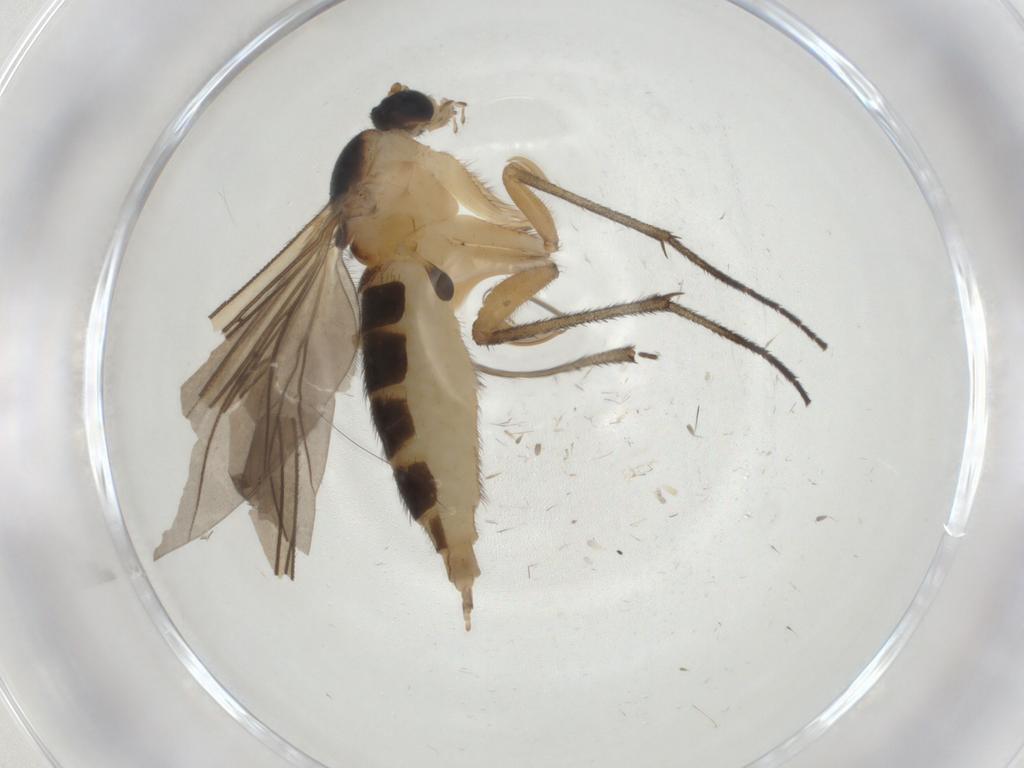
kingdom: Animalia
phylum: Arthropoda
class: Insecta
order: Diptera
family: Sciaridae
